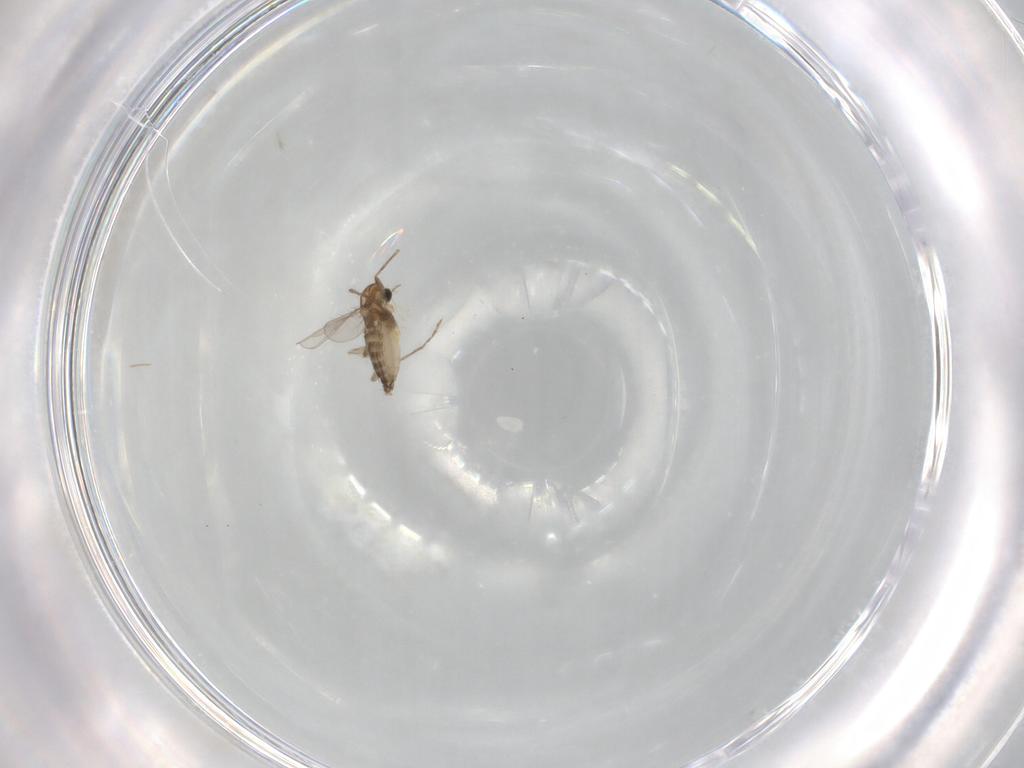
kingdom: Animalia
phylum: Arthropoda
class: Insecta
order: Diptera
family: Chironomidae
